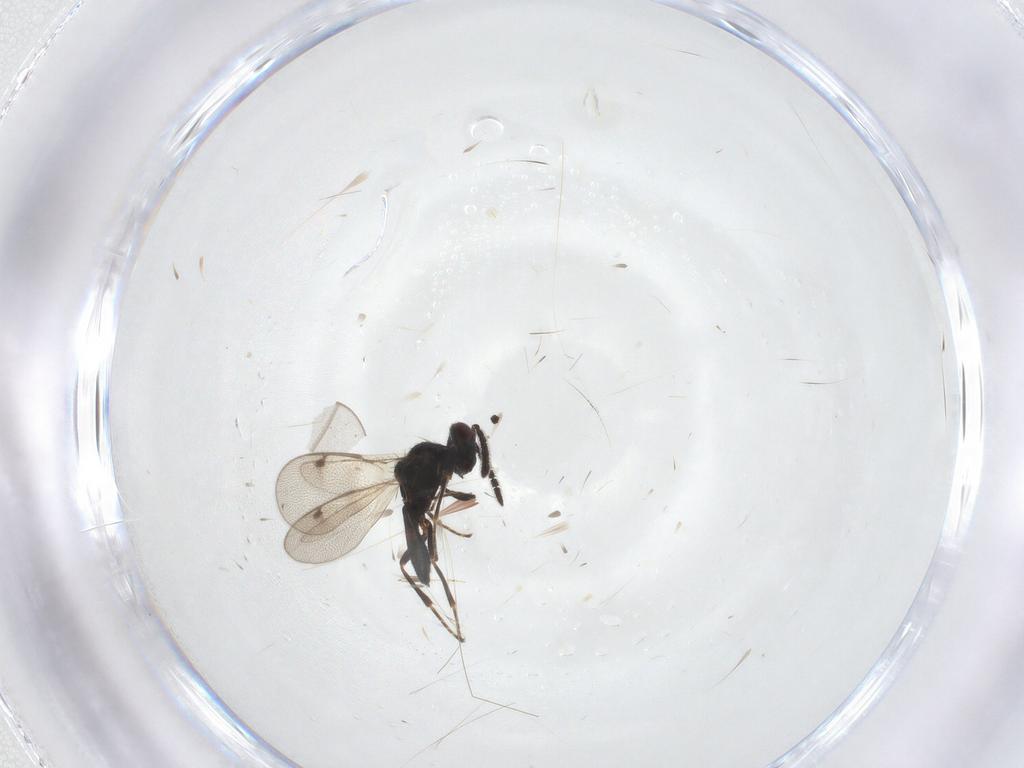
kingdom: Animalia
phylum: Arthropoda
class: Insecta
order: Hymenoptera
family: Pteromalidae
